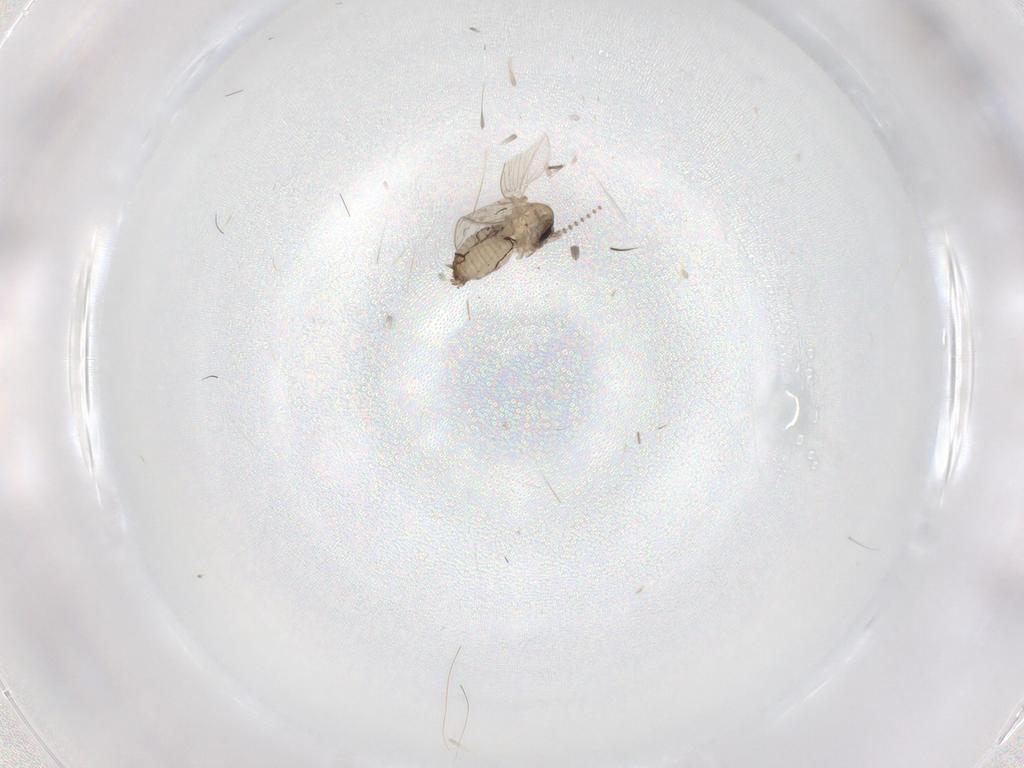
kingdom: Animalia
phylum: Arthropoda
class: Insecta
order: Diptera
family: Psychodidae
